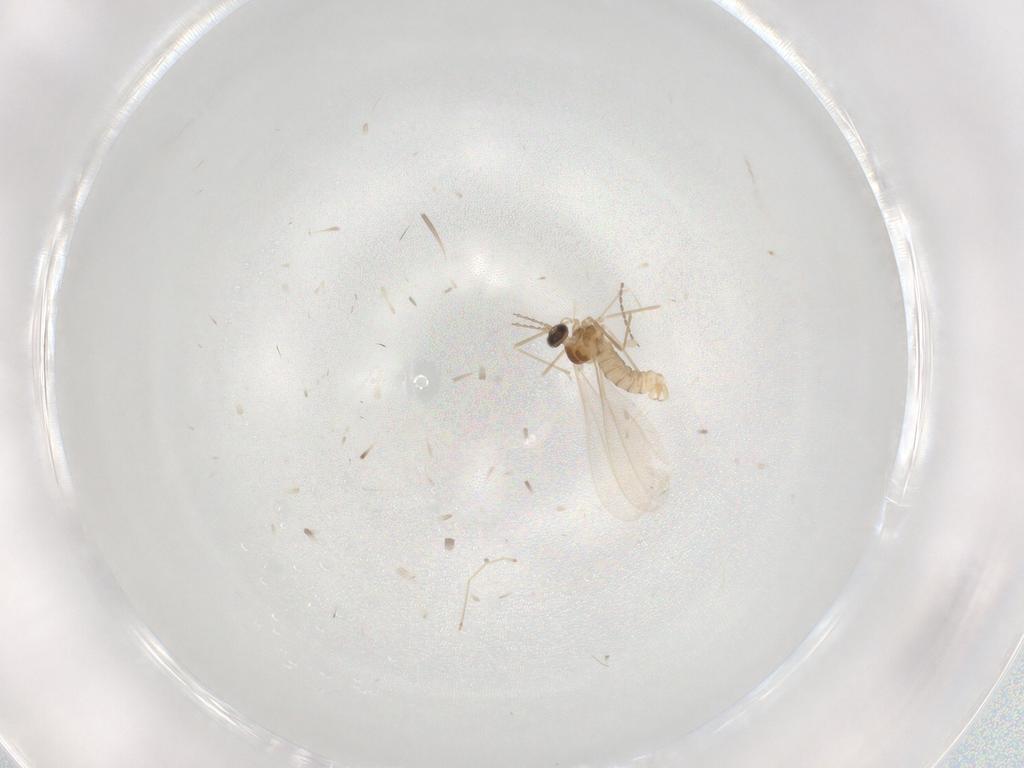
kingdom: Animalia
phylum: Arthropoda
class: Insecta
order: Diptera
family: Cecidomyiidae
